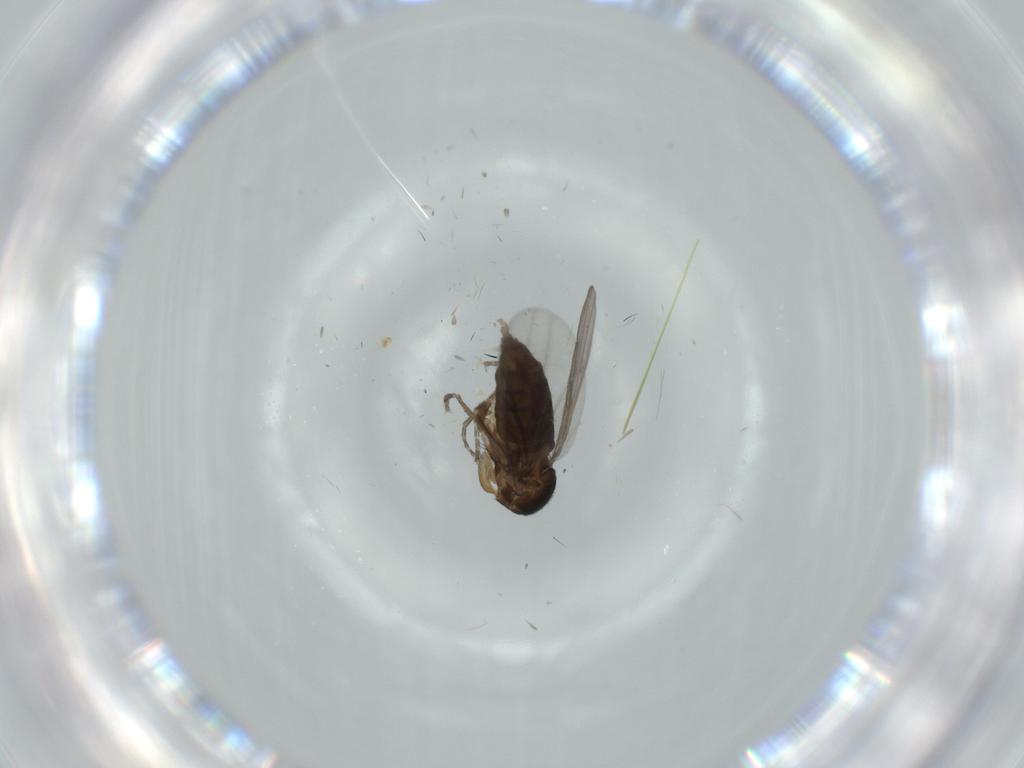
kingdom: Animalia
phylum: Arthropoda
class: Insecta
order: Diptera
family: Phoridae
